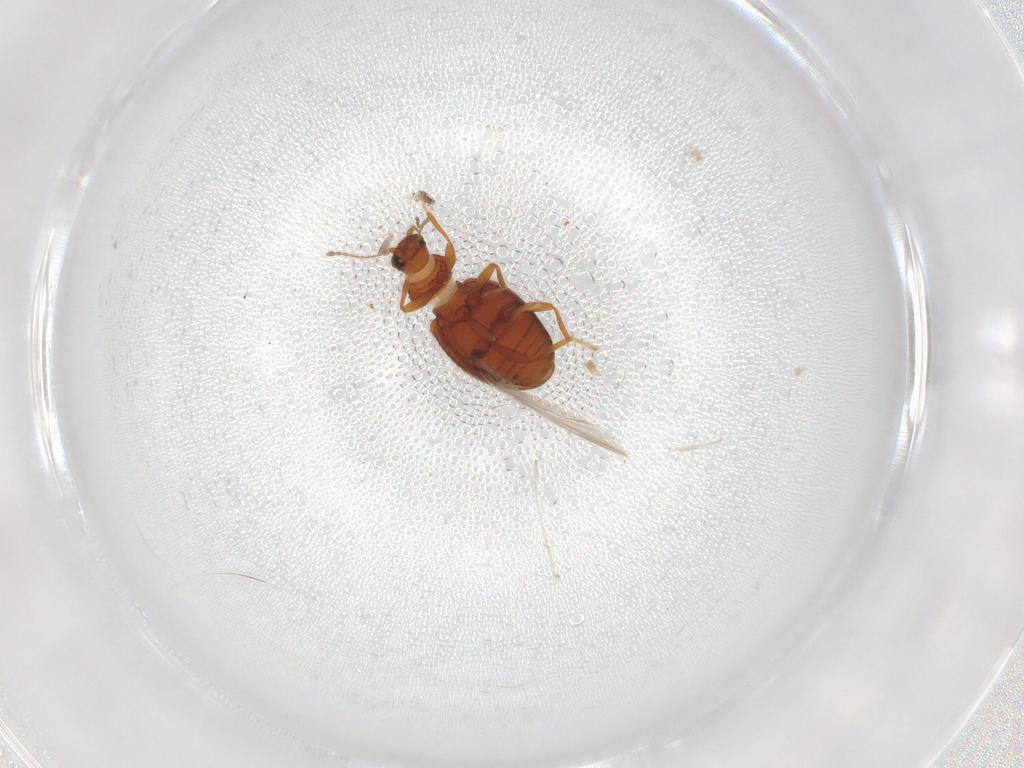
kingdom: Animalia
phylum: Arthropoda
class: Insecta
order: Coleoptera
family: Latridiidae
